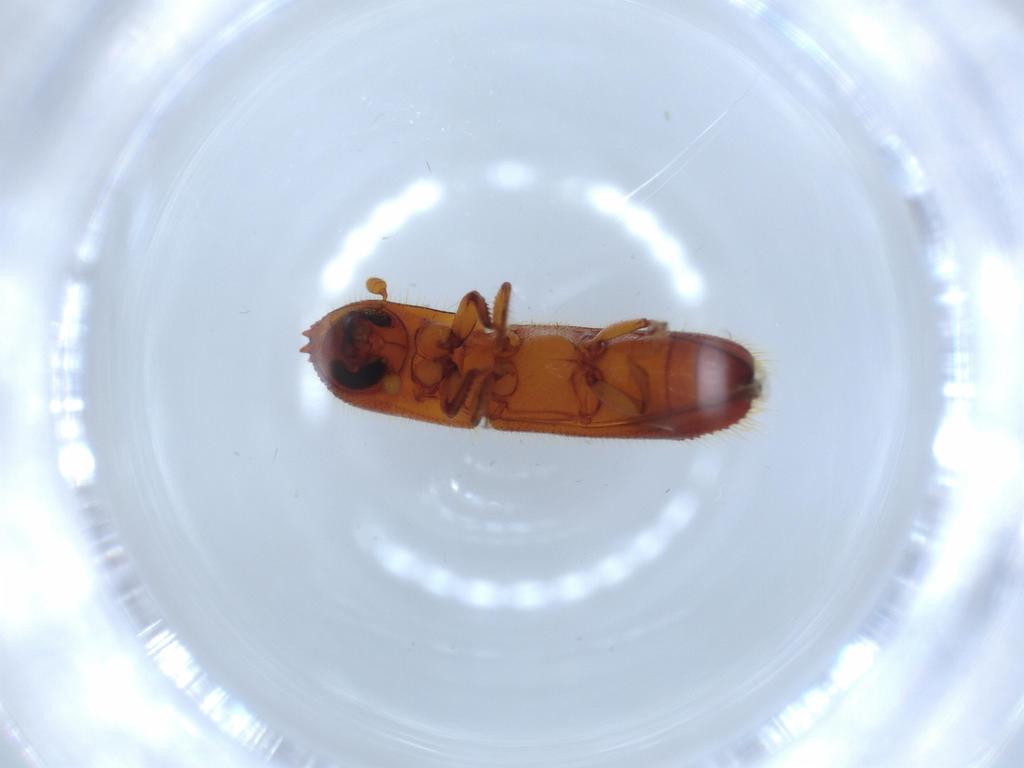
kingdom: Animalia
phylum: Arthropoda
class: Insecta
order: Coleoptera
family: Curculionidae
